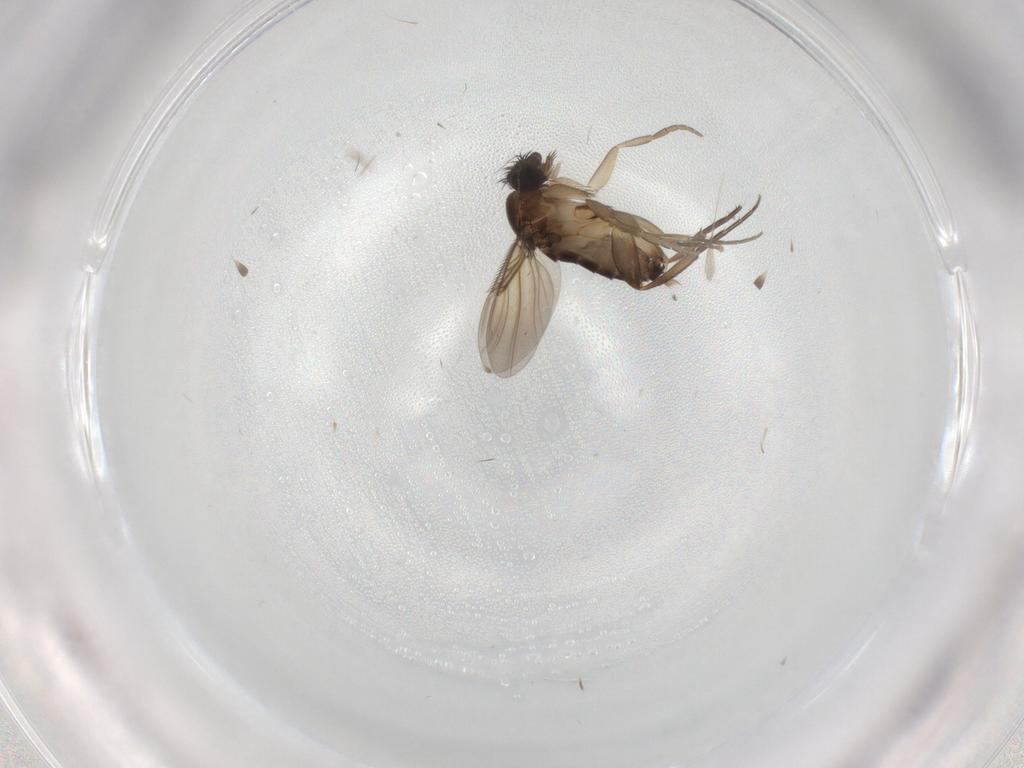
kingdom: Animalia
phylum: Arthropoda
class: Insecta
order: Diptera
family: Phoridae
